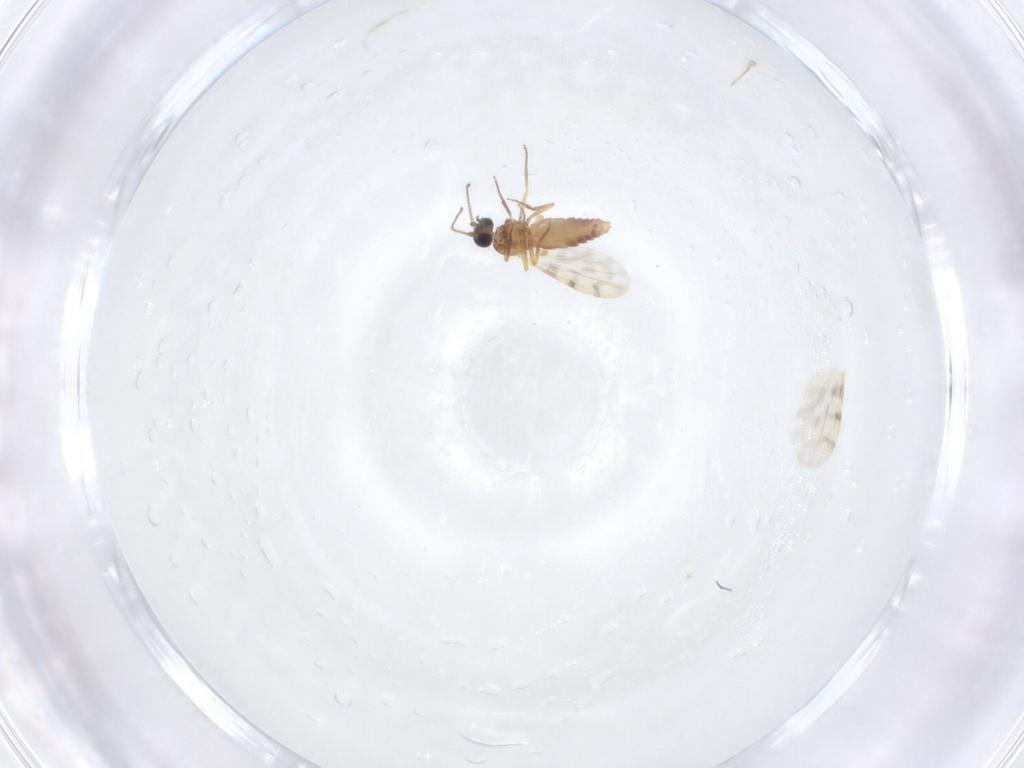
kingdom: Animalia
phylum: Arthropoda
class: Insecta
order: Diptera
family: Ceratopogonidae
